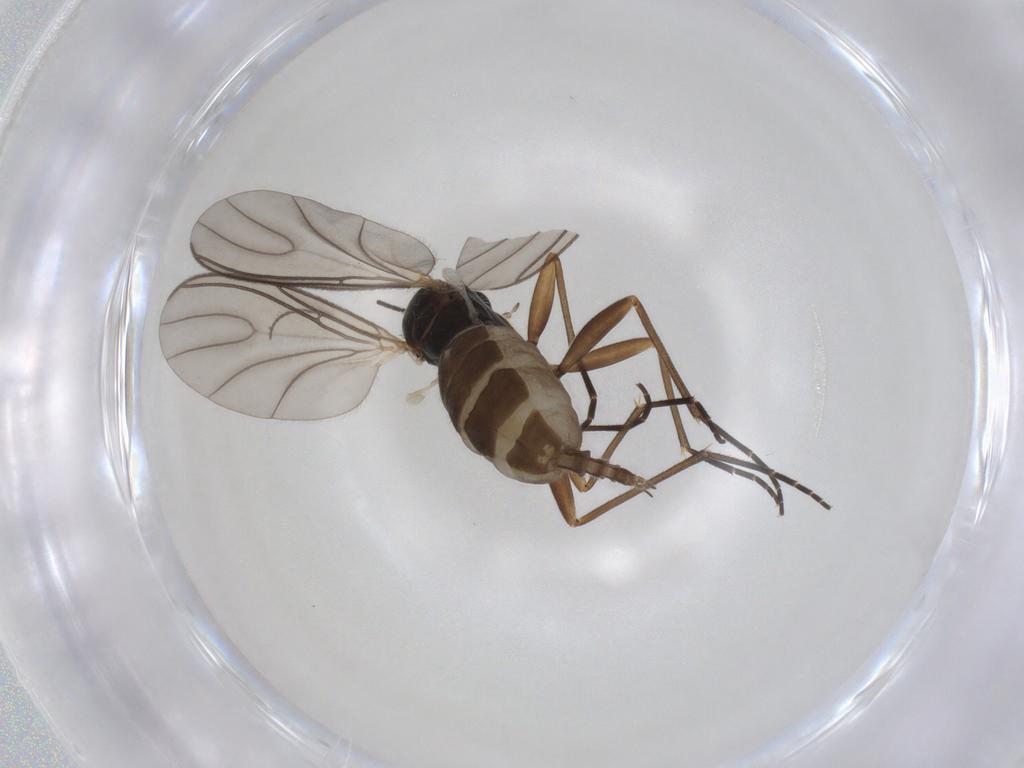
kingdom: Animalia
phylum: Arthropoda
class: Insecta
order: Diptera
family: Sciaridae
